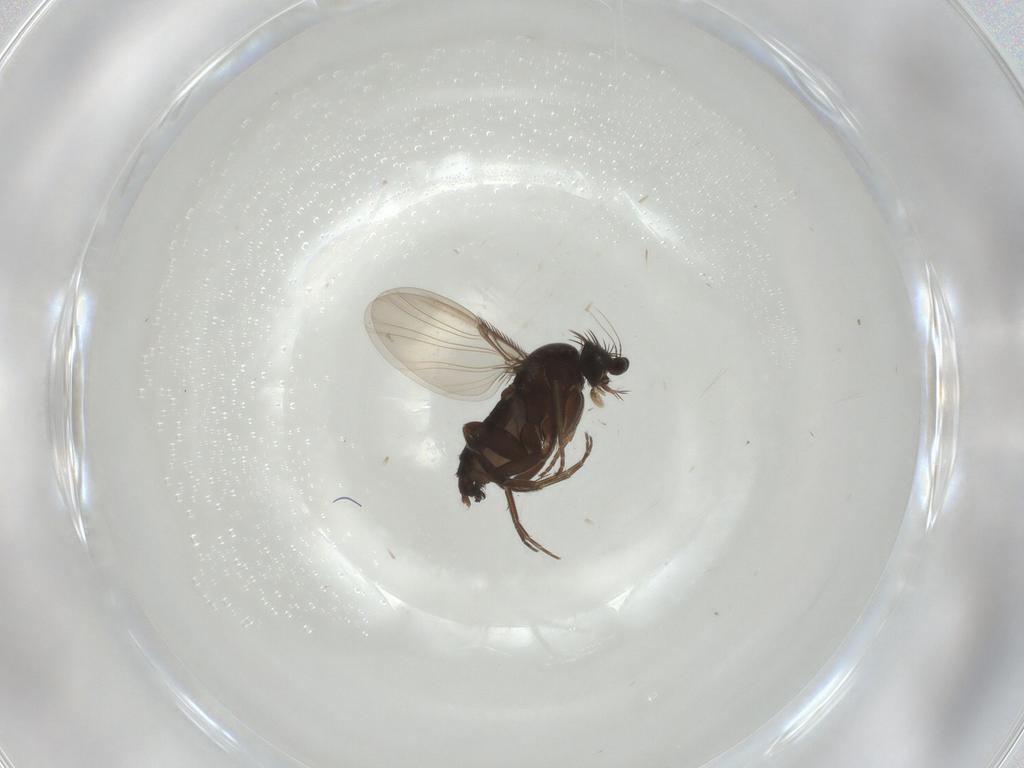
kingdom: Animalia
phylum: Arthropoda
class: Insecta
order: Diptera
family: Phoridae
